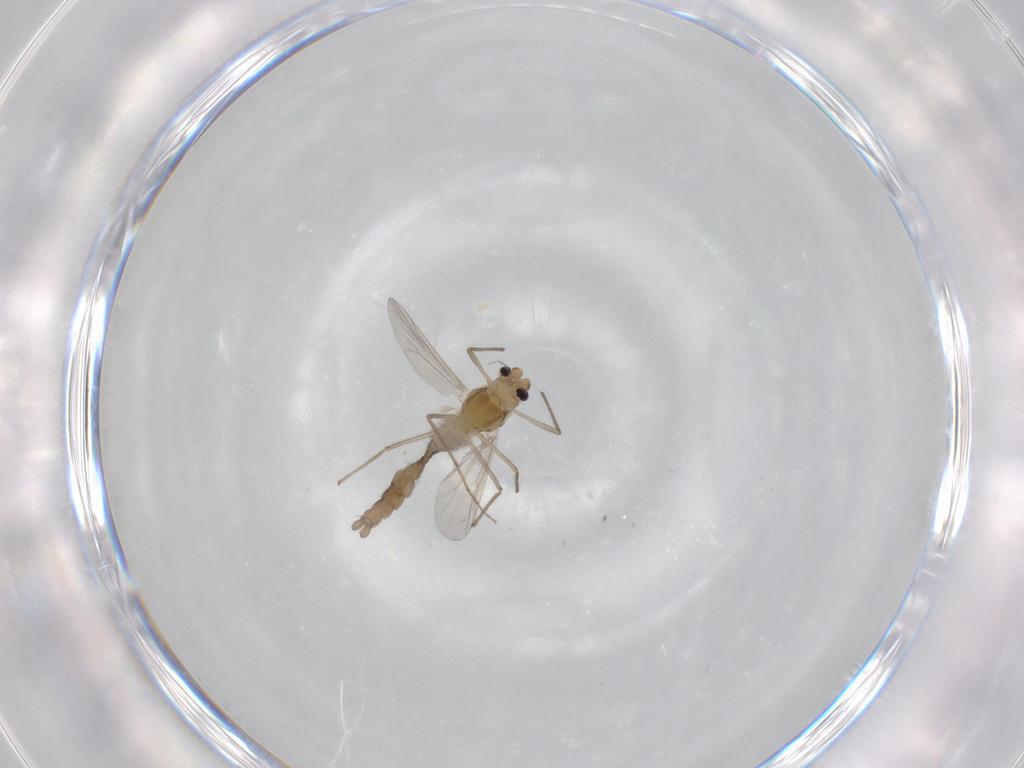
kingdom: Animalia
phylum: Arthropoda
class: Insecta
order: Diptera
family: Chironomidae
